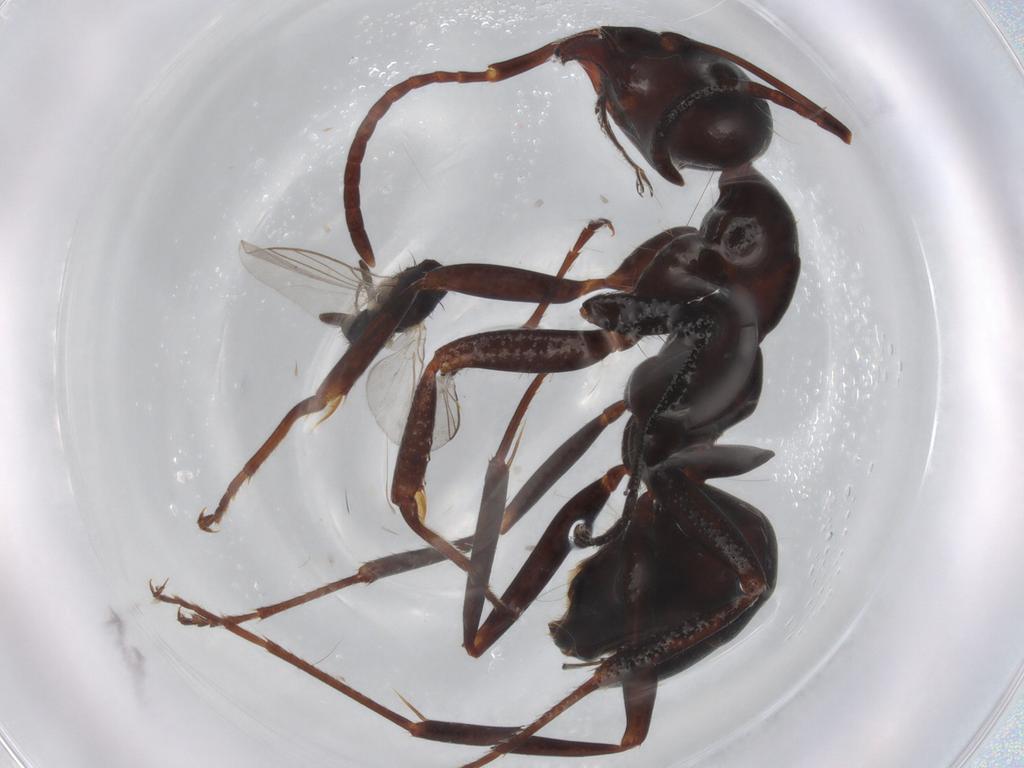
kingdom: Animalia
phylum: Arthropoda
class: Insecta
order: Hymenoptera
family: Formicidae
